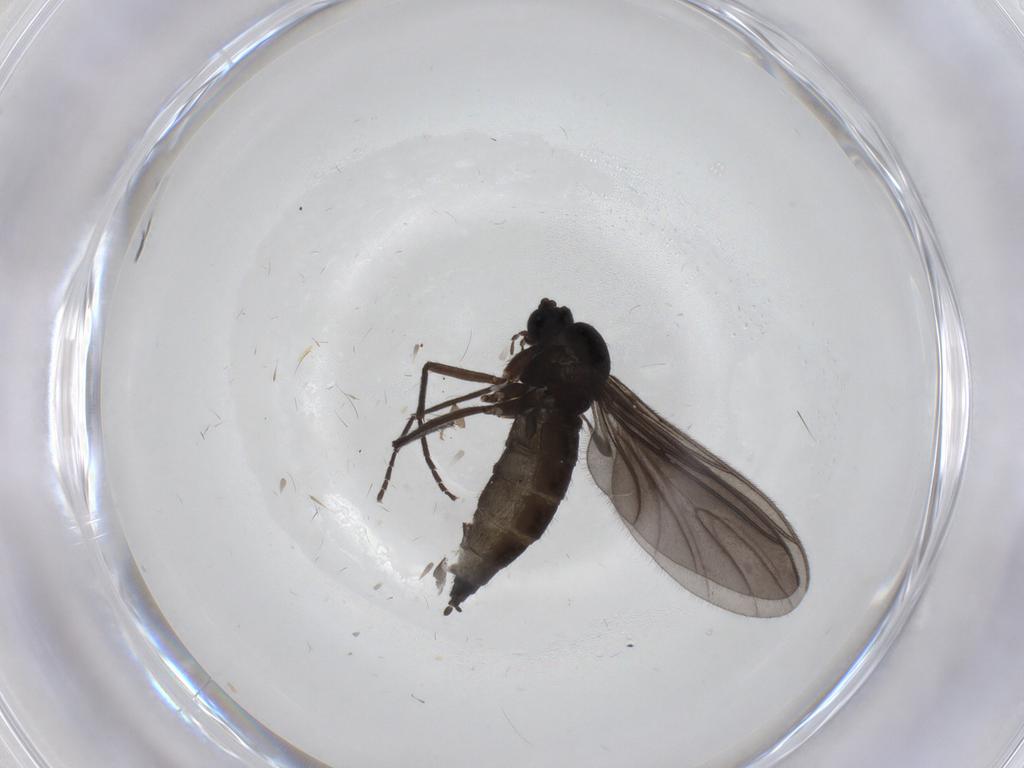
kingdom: Animalia
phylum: Arthropoda
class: Insecta
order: Diptera
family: Sciaridae
